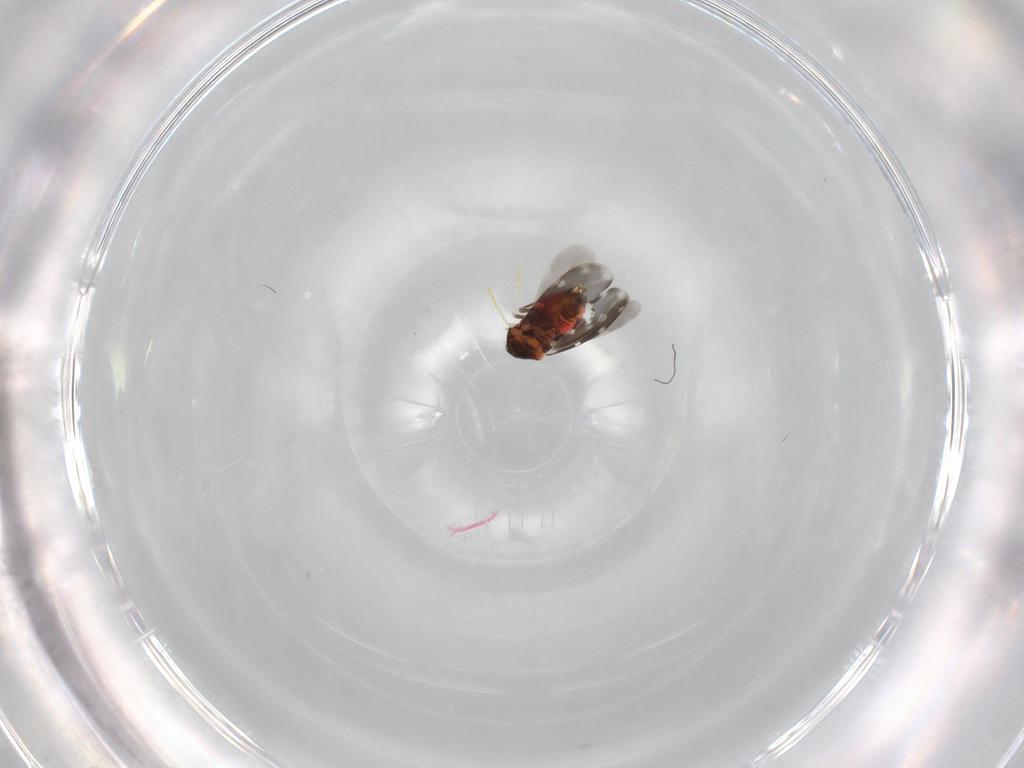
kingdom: Animalia
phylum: Arthropoda
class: Insecta
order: Hemiptera
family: Aleyrodidae
